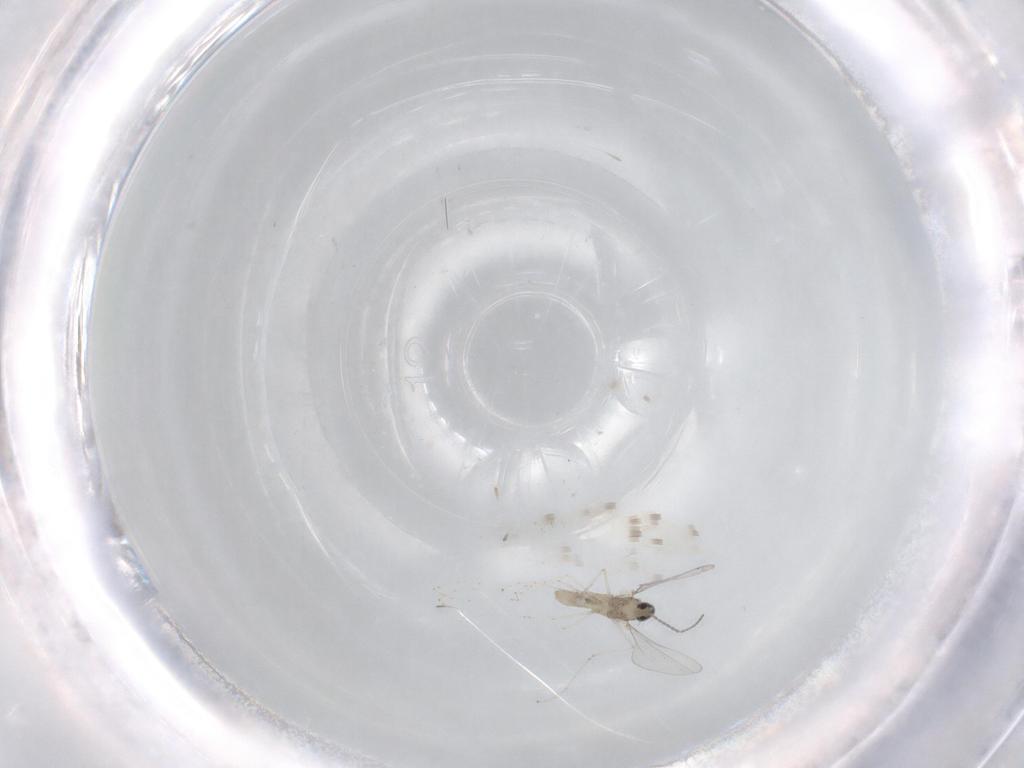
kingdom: Animalia
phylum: Arthropoda
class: Insecta
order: Diptera
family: Cecidomyiidae
